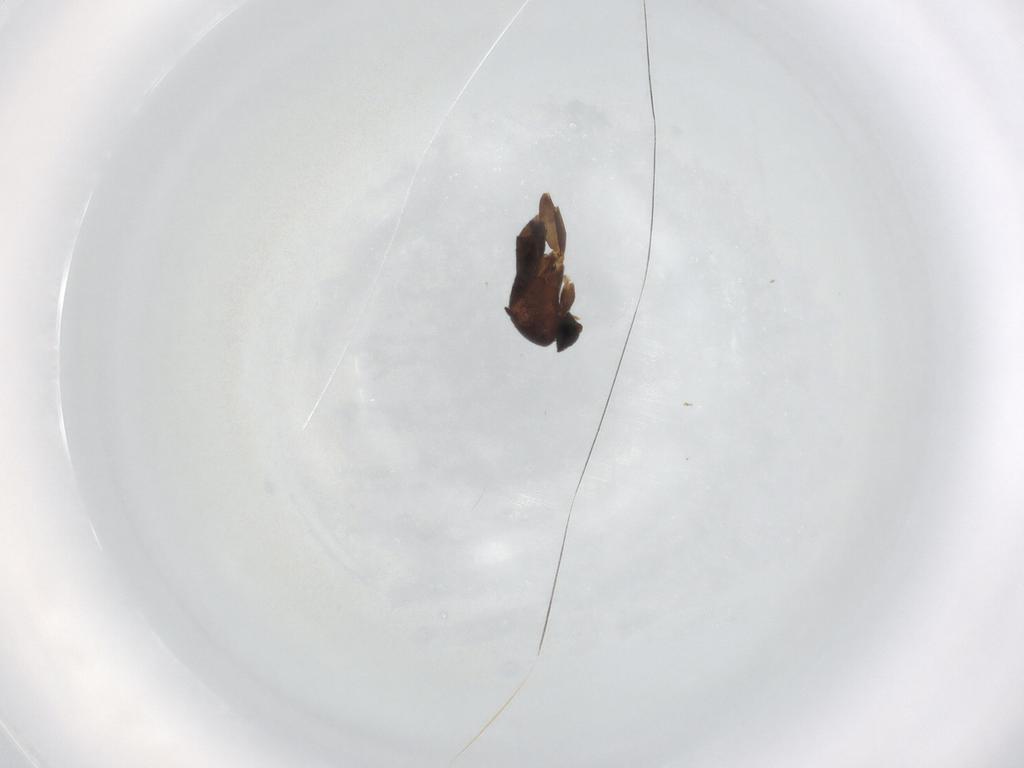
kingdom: Animalia
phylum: Arthropoda
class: Insecta
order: Diptera
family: Phoridae
